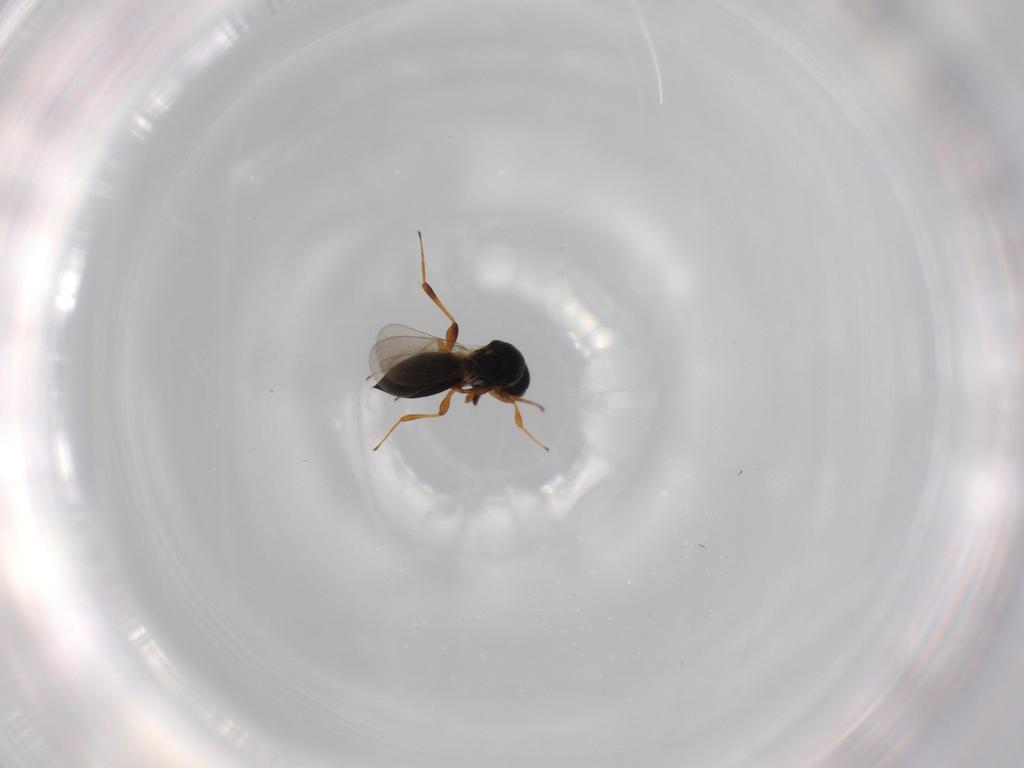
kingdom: Animalia
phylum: Arthropoda
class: Insecta
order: Hymenoptera
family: Platygastridae
